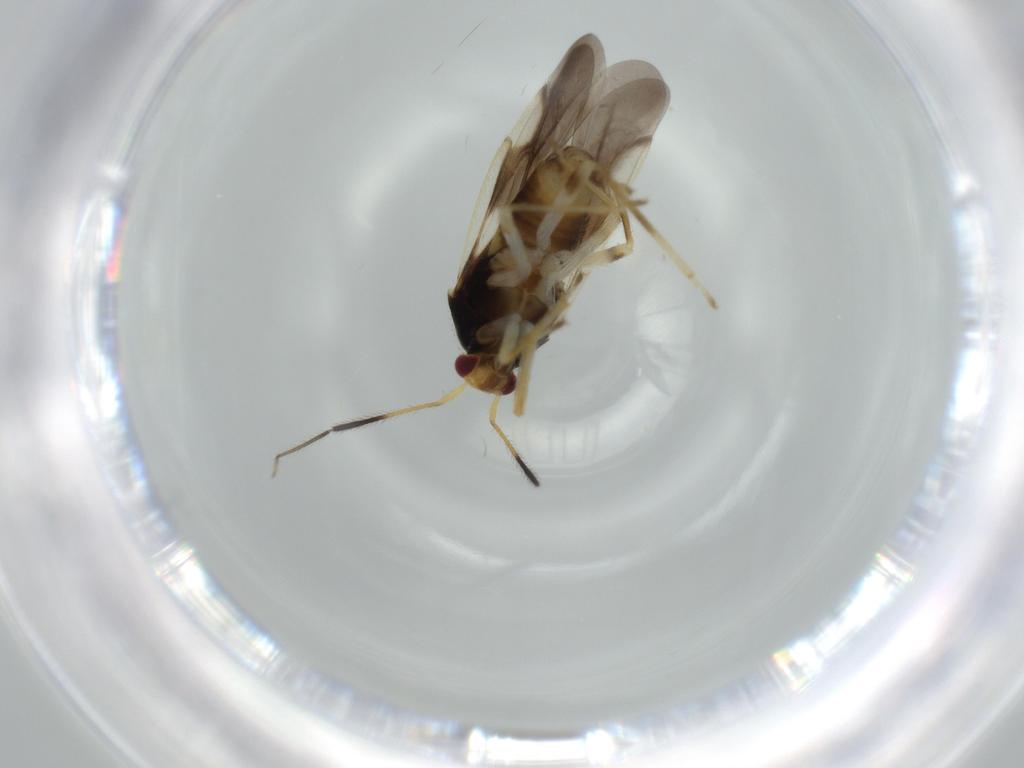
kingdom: Animalia
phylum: Arthropoda
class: Insecta
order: Hemiptera
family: Miridae
